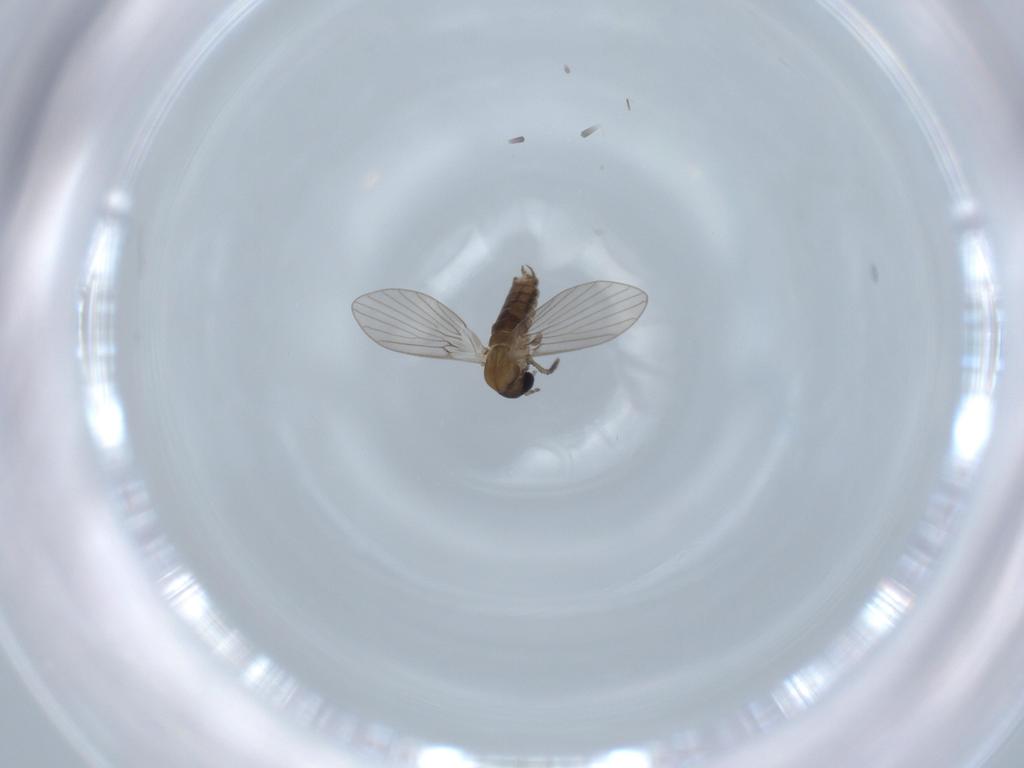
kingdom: Animalia
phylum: Arthropoda
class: Insecta
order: Diptera
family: Psychodidae
